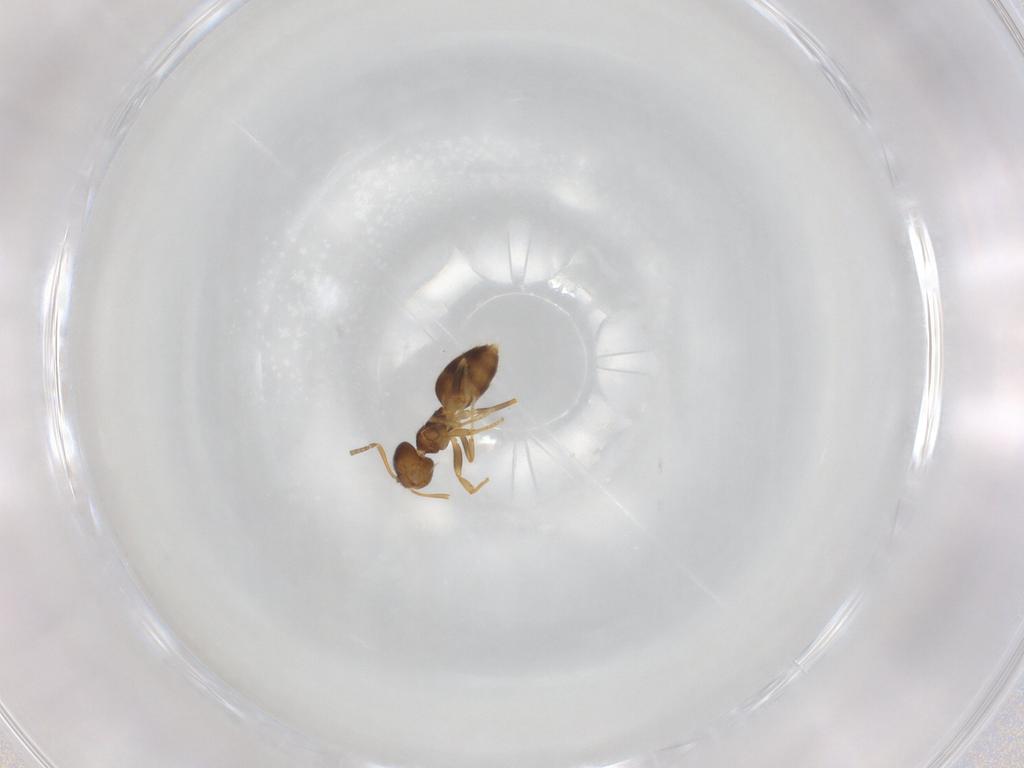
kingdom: Animalia
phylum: Arthropoda
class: Insecta
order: Hymenoptera
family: Formicidae
